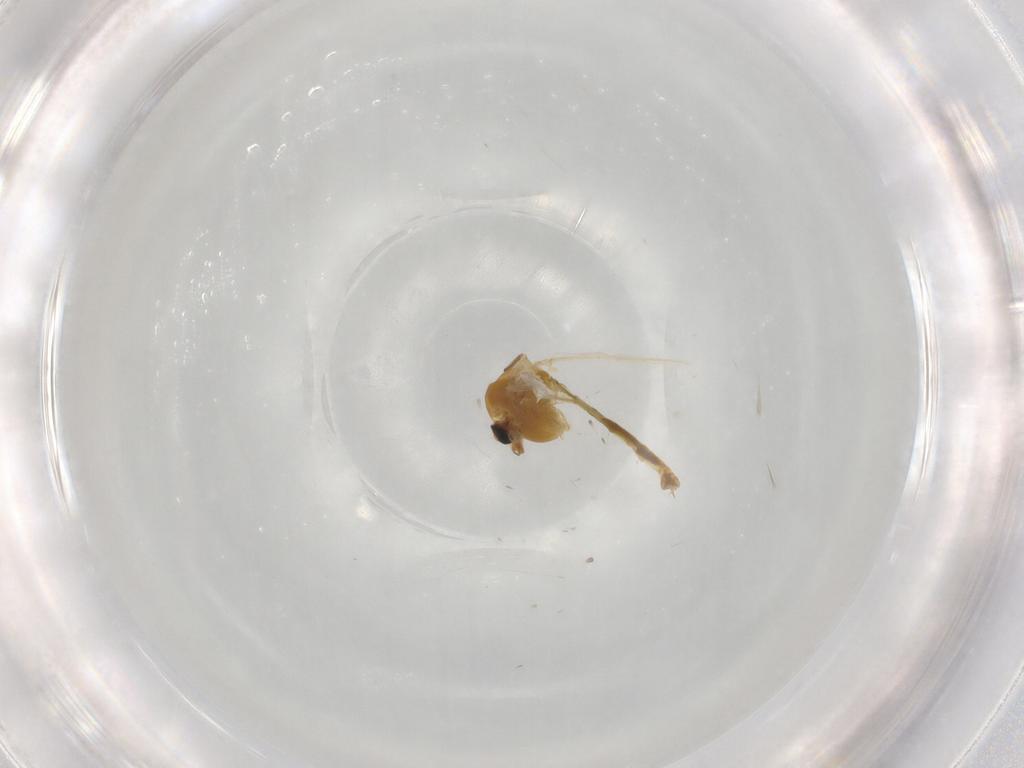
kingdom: Animalia
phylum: Arthropoda
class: Insecta
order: Diptera
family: Chironomidae
